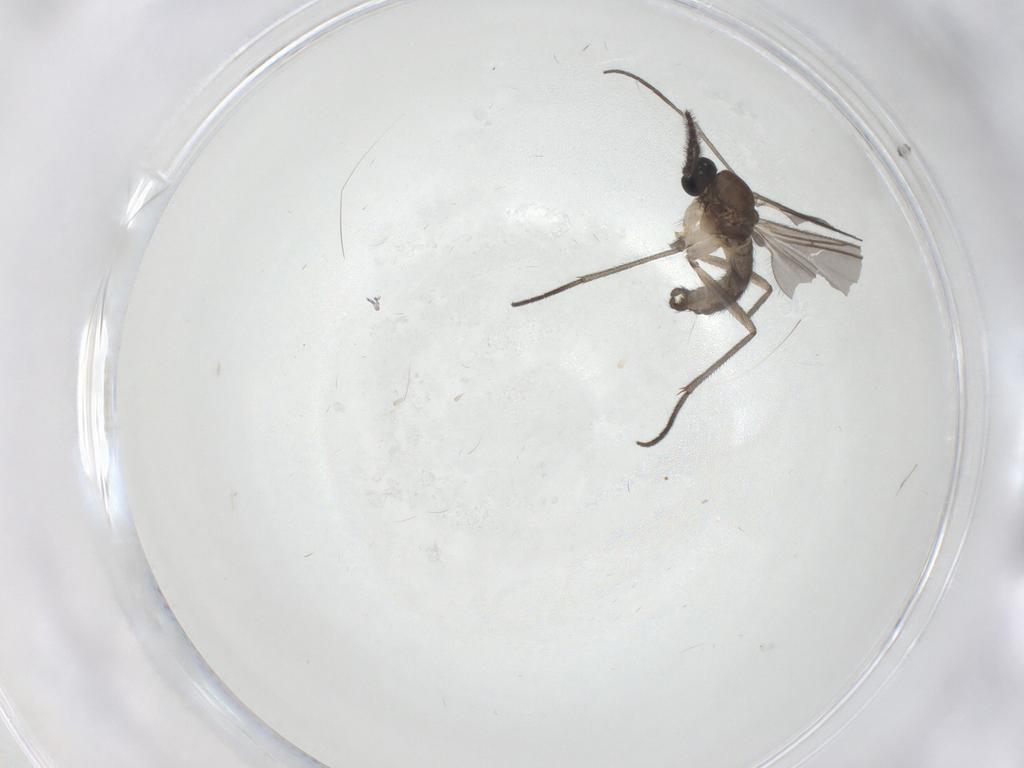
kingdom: Animalia
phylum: Arthropoda
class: Insecta
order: Diptera
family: Sciaridae
